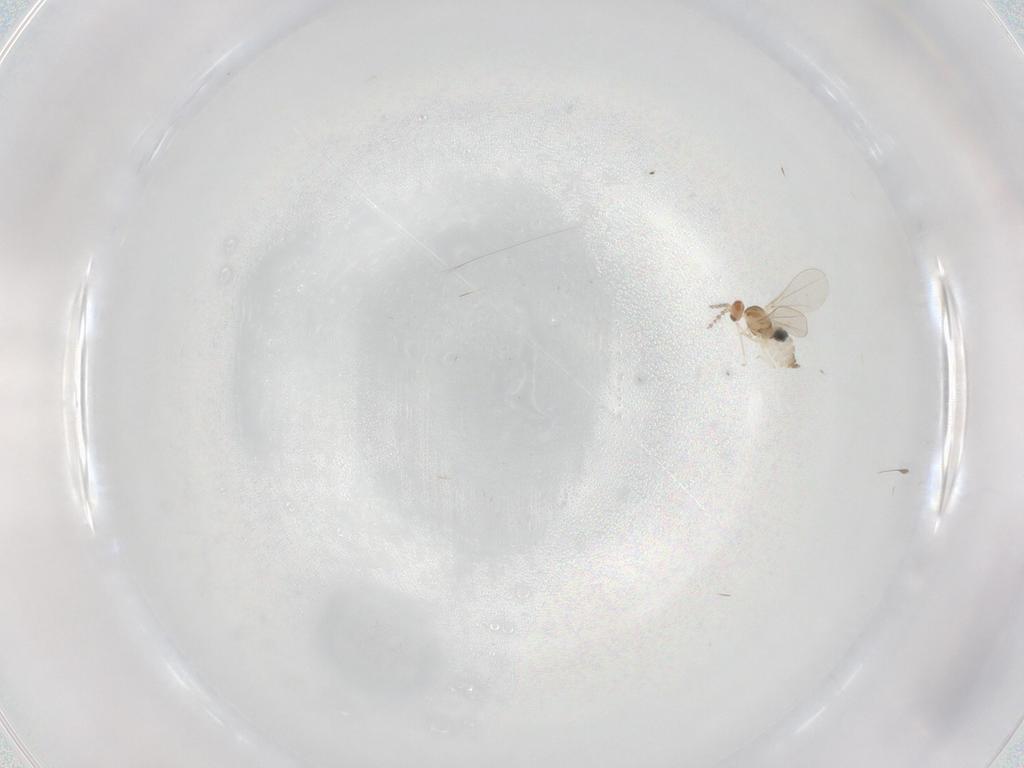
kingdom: Animalia
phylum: Arthropoda
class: Insecta
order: Diptera
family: Cecidomyiidae
